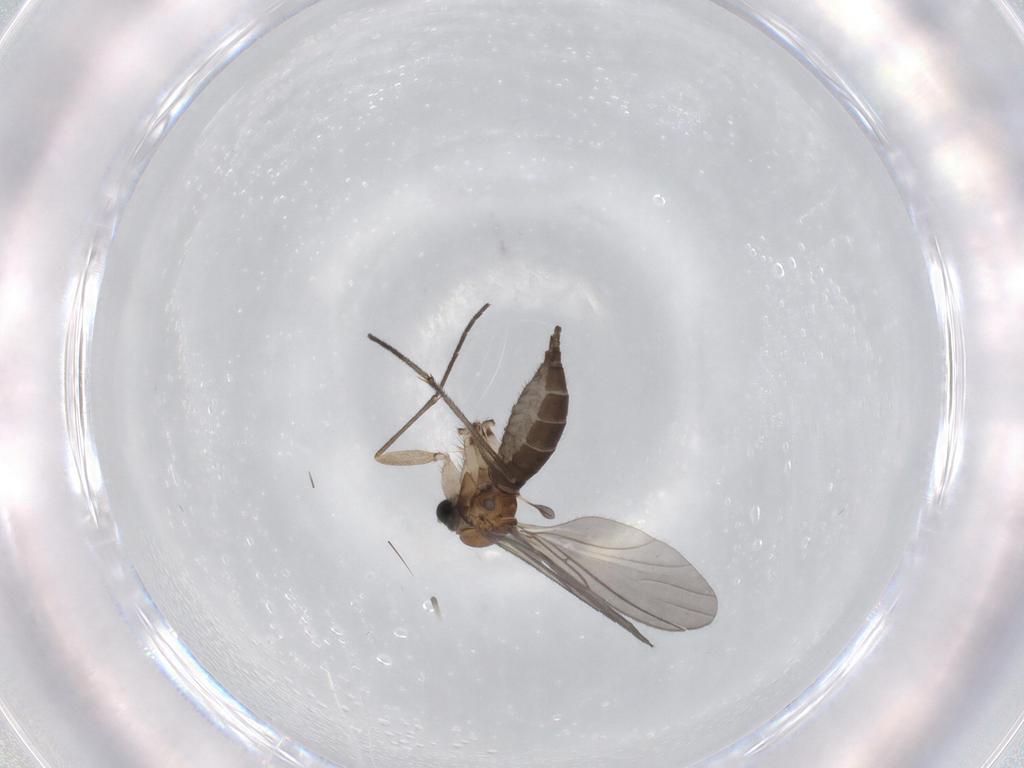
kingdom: Animalia
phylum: Arthropoda
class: Insecta
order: Diptera
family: Sciaridae
